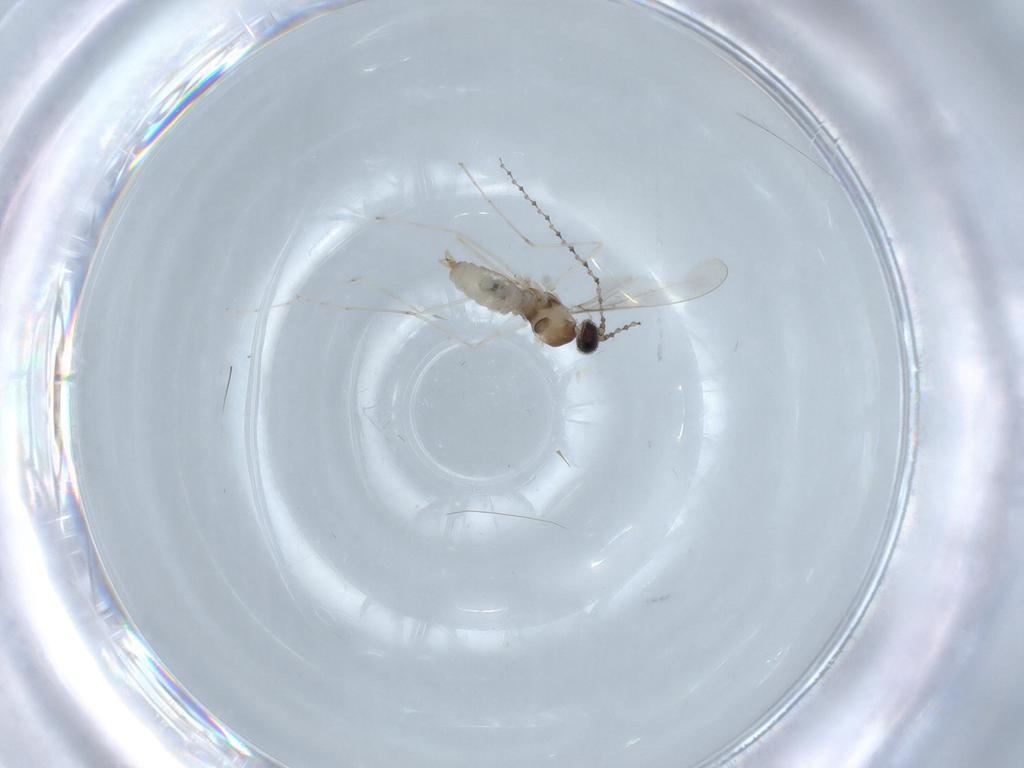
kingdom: Animalia
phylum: Arthropoda
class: Insecta
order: Diptera
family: Cecidomyiidae
